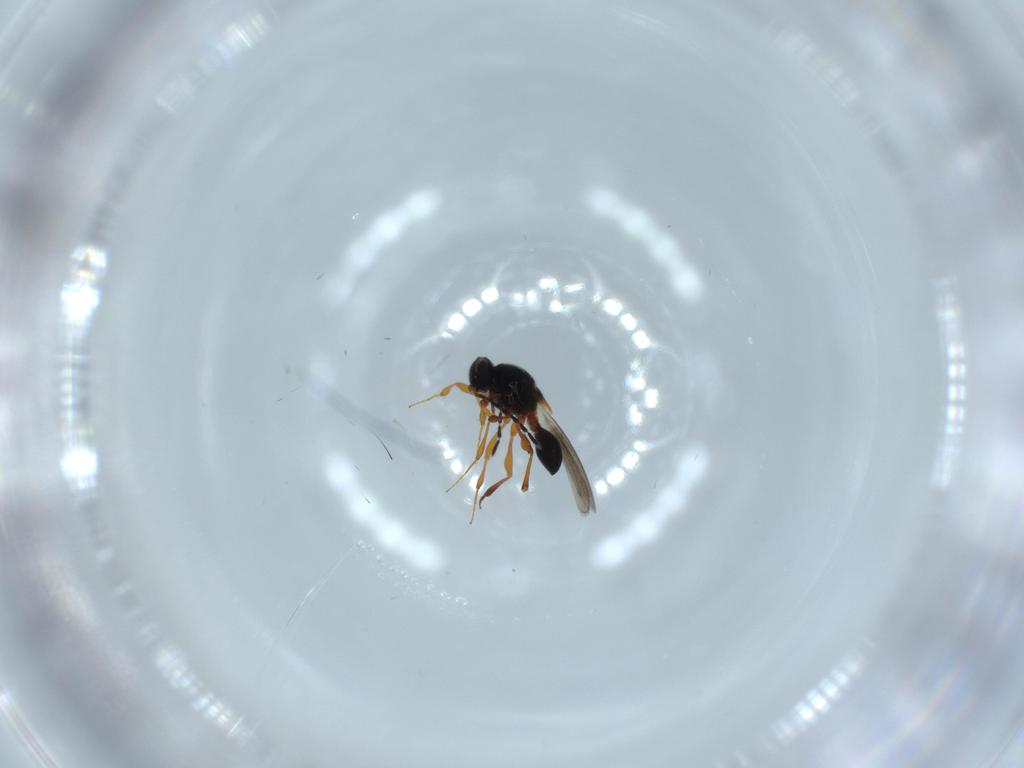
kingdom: Animalia
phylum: Arthropoda
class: Insecta
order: Hymenoptera
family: Platygastridae
